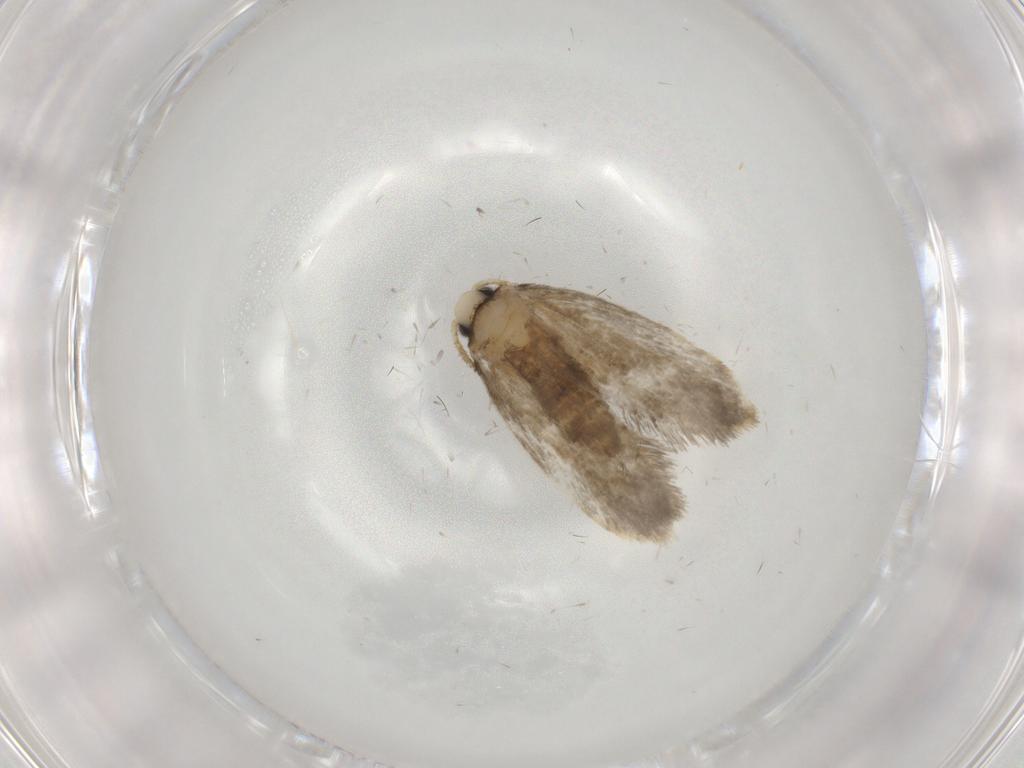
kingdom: Animalia
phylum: Arthropoda
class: Insecta
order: Lepidoptera
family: Psychidae
